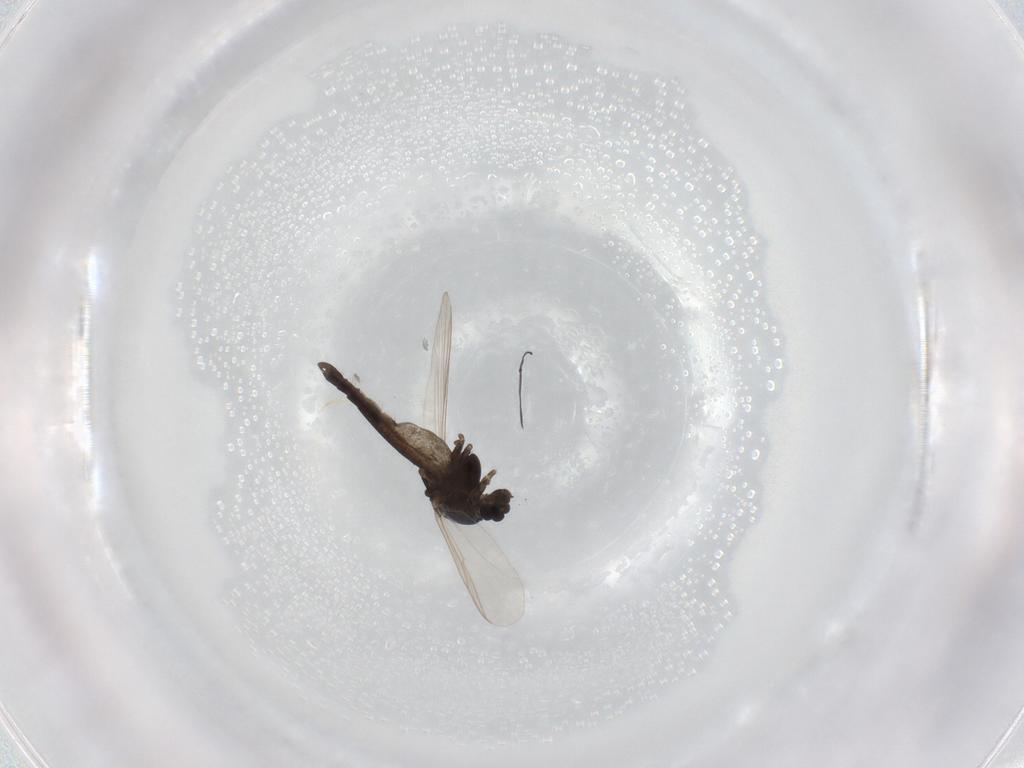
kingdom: Animalia
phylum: Arthropoda
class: Insecta
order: Diptera
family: Chironomidae
